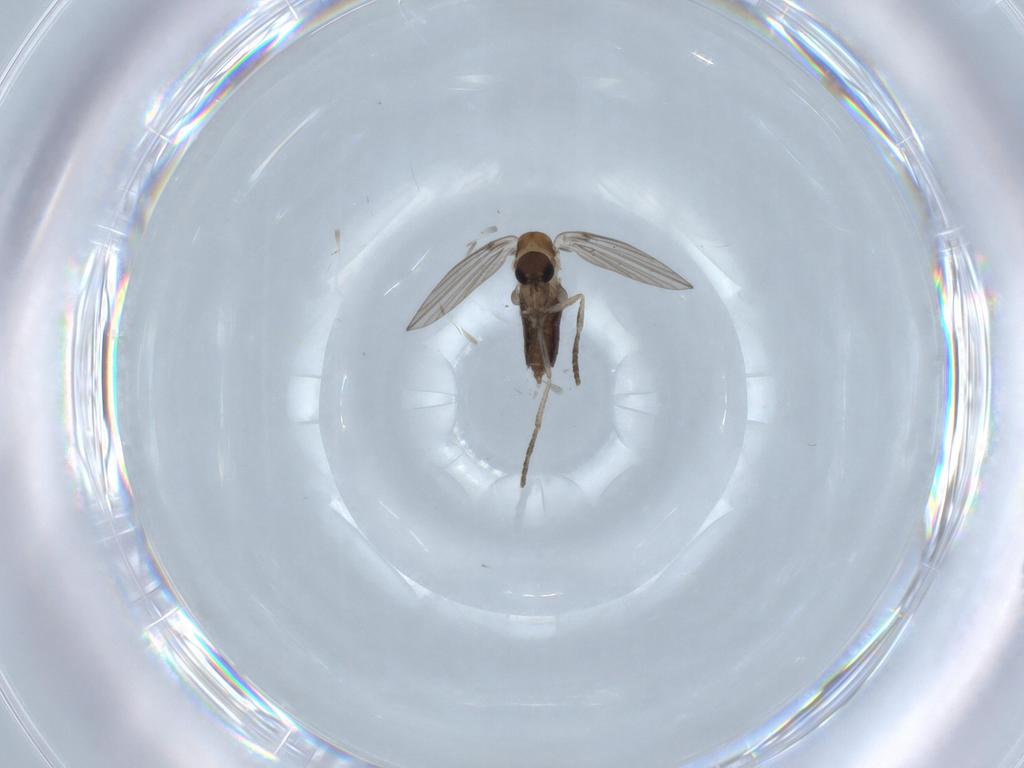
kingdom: Animalia
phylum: Arthropoda
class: Insecta
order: Diptera
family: Psychodidae
